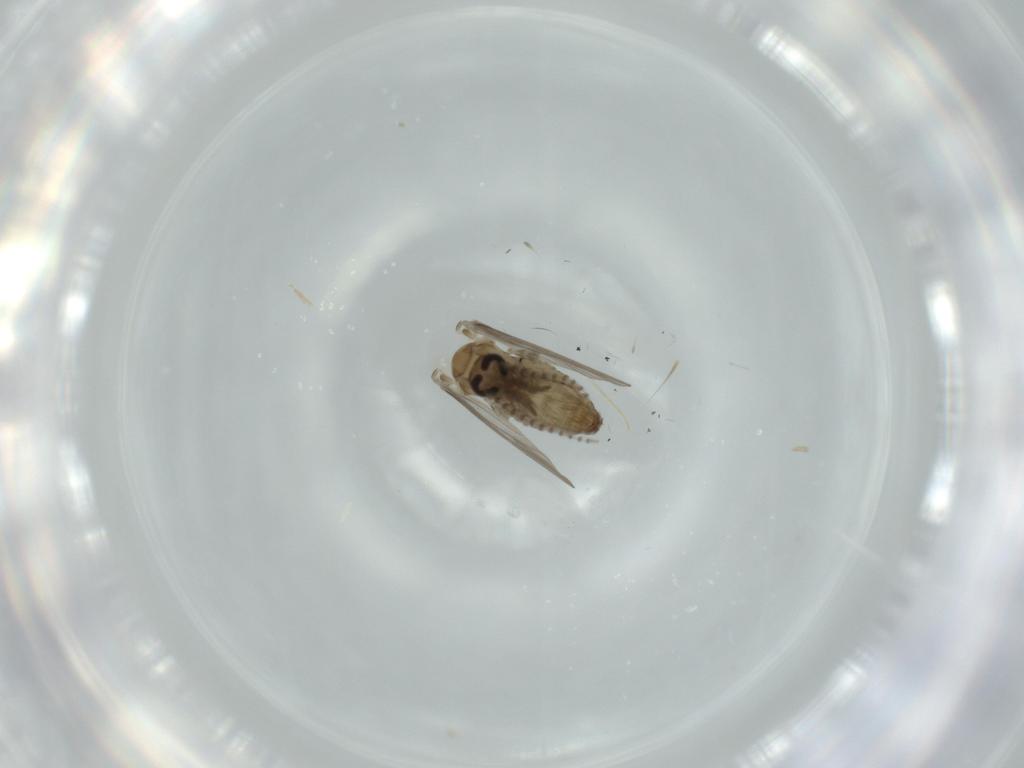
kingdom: Animalia
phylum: Arthropoda
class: Insecta
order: Diptera
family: Psychodidae
